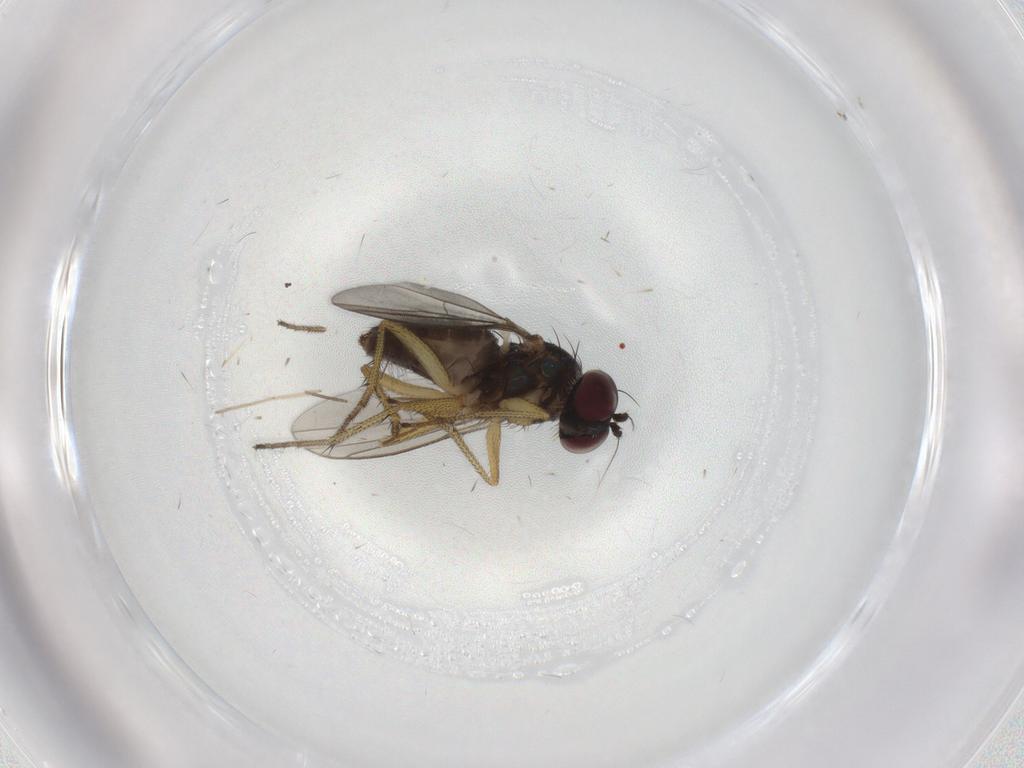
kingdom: Animalia
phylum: Arthropoda
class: Insecta
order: Diptera
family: Dolichopodidae
